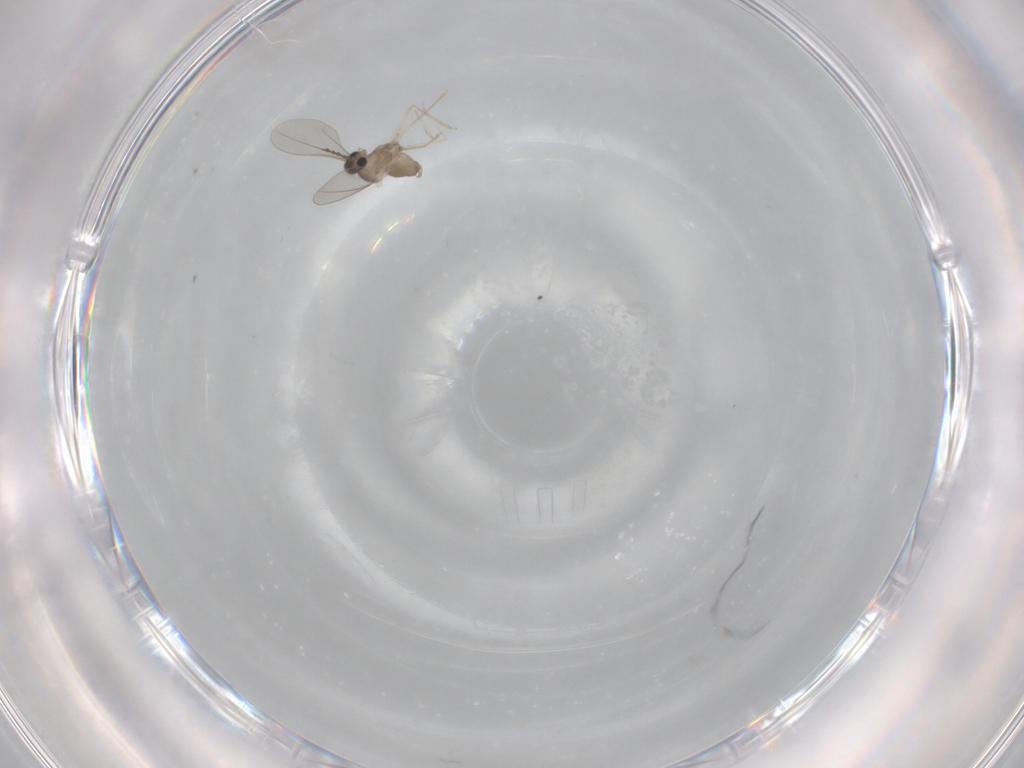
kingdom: Animalia
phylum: Arthropoda
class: Insecta
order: Diptera
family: Cecidomyiidae
